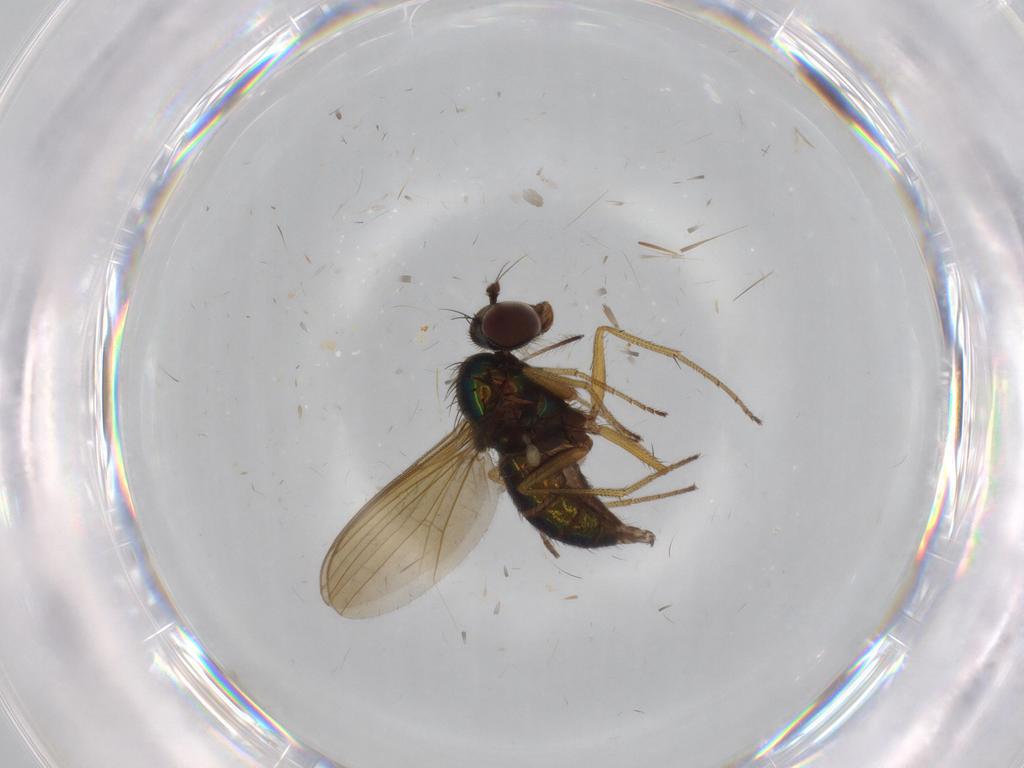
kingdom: Animalia
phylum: Arthropoda
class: Insecta
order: Diptera
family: Dolichopodidae
